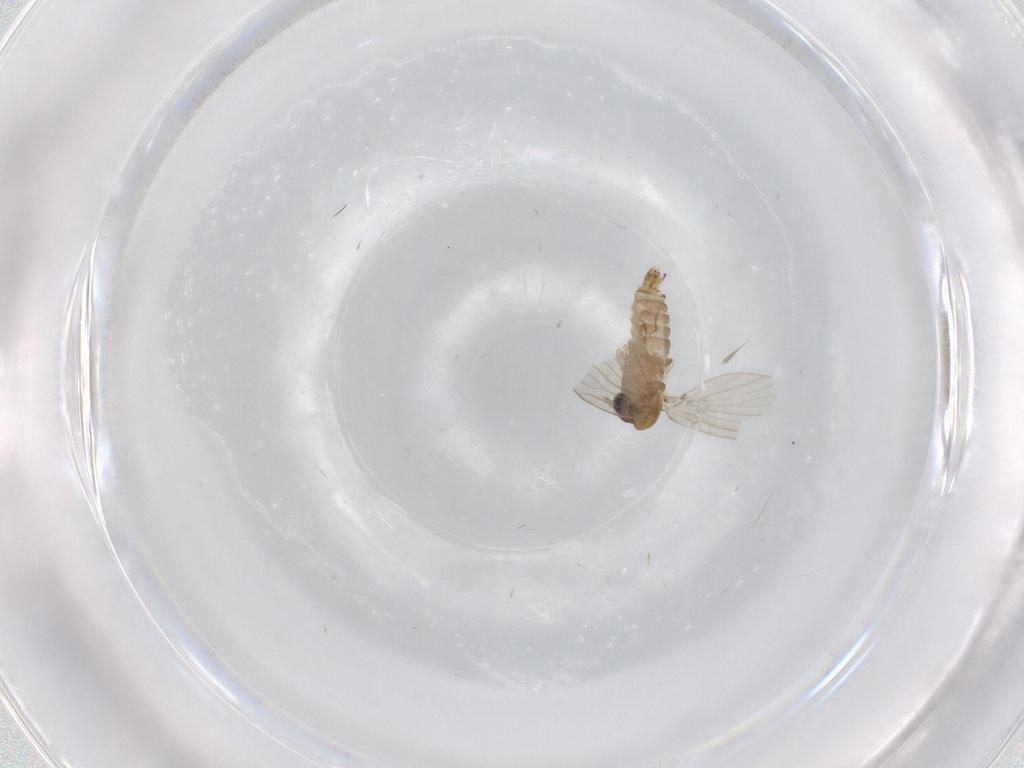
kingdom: Animalia
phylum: Arthropoda
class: Insecta
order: Diptera
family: Psychodidae
